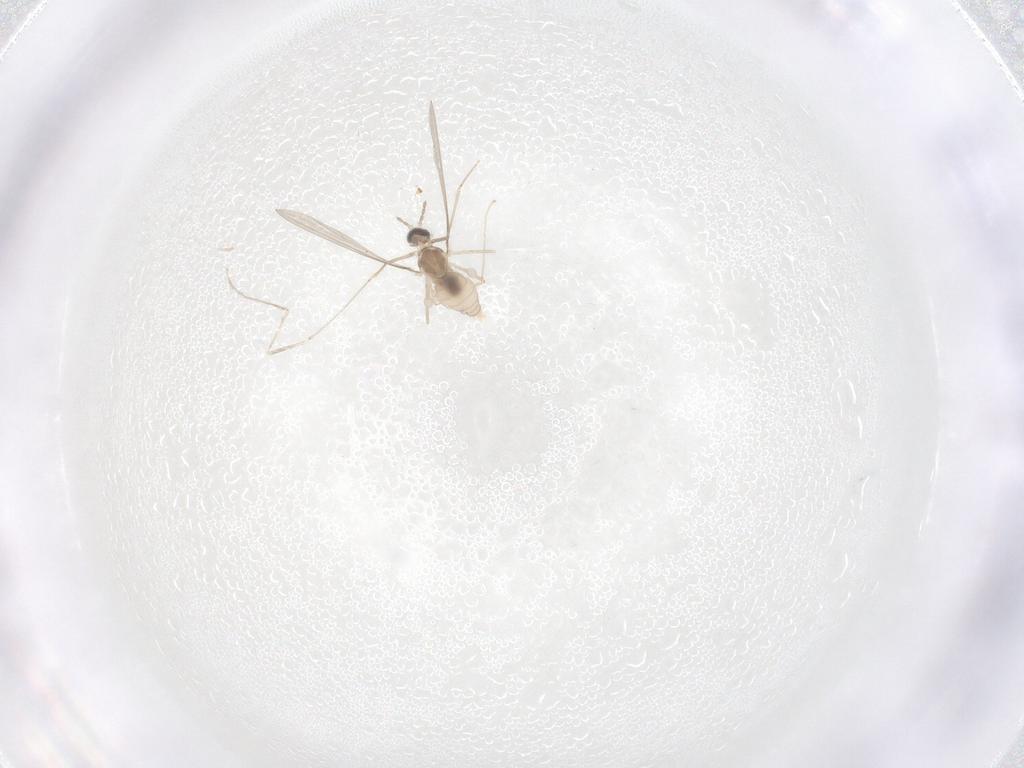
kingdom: Animalia
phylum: Arthropoda
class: Insecta
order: Diptera
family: Cecidomyiidae
